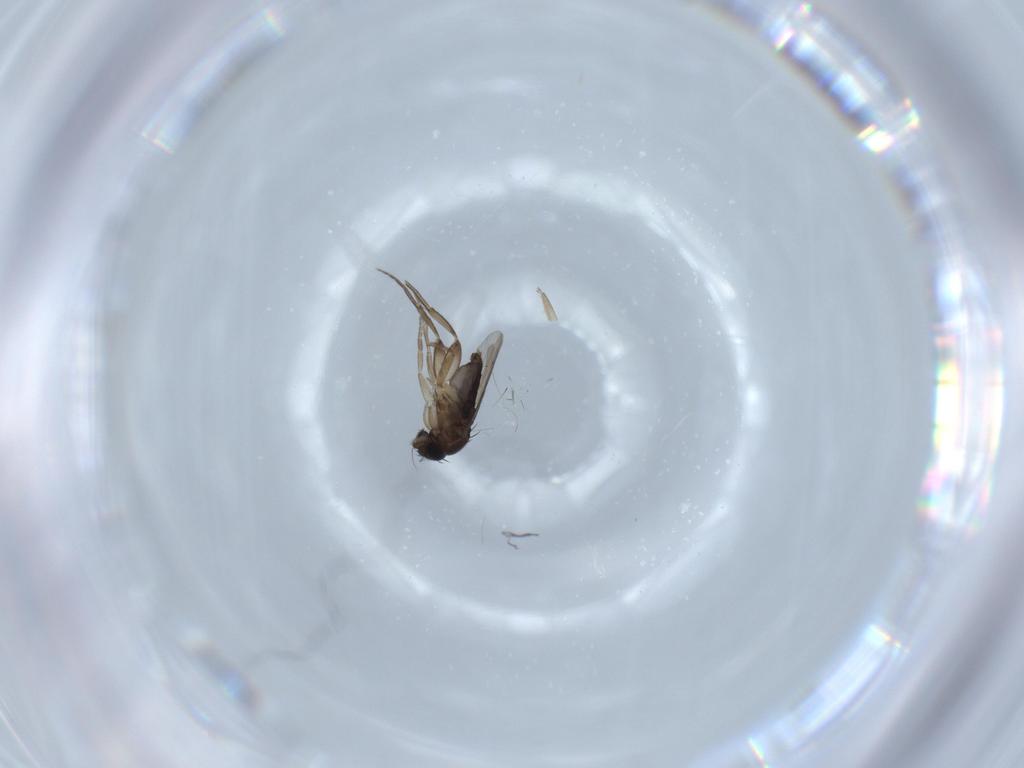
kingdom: Animalia
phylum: Arthropoda
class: Insecta
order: Diptera
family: Phoridae
